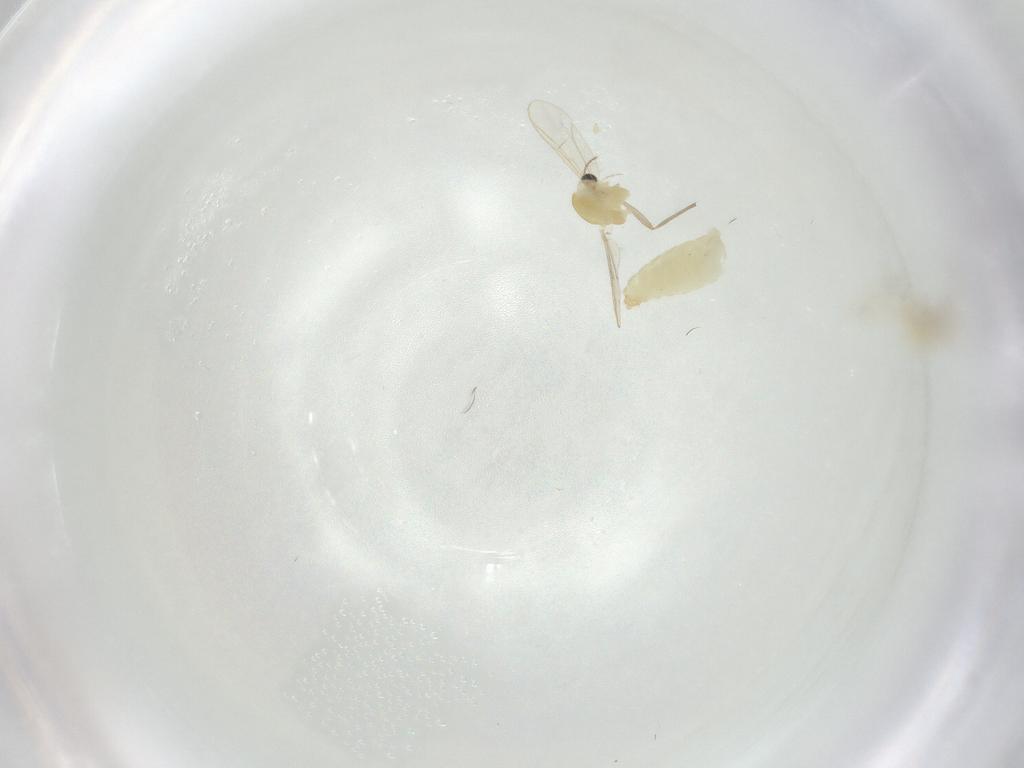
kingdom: Animalia
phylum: Arthropoda
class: Insecta
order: Diptera
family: Chironomidae
